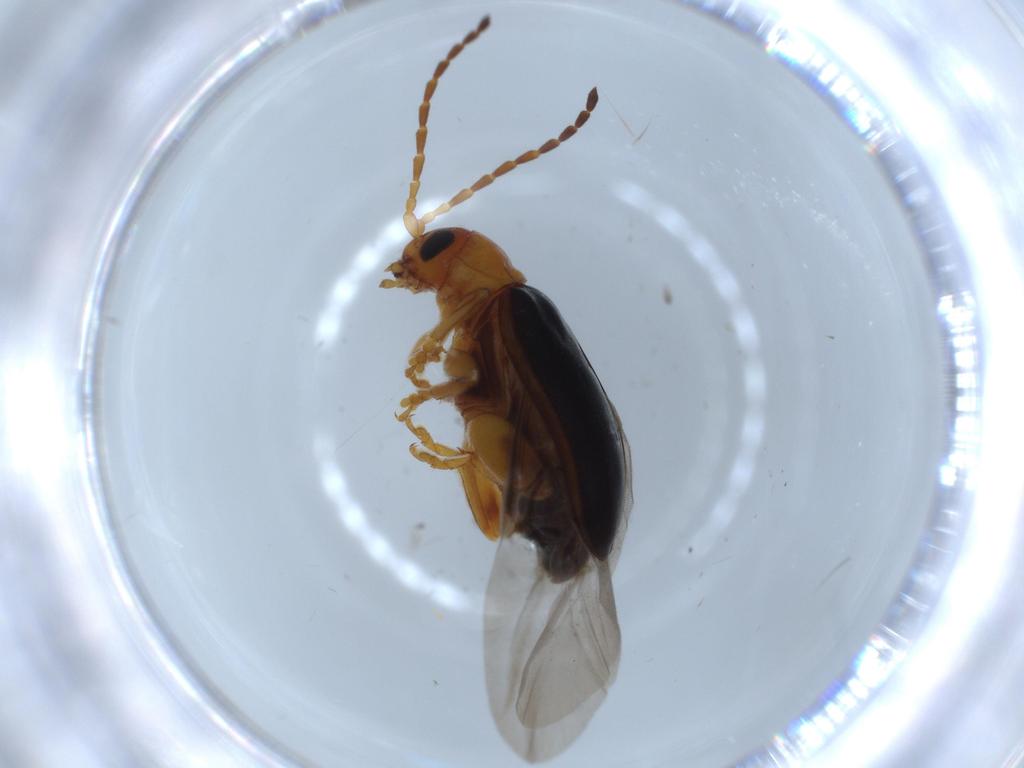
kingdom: Animalia
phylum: Arthropoda
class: Insecta
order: Coleoptera
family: Chrysomelidae
